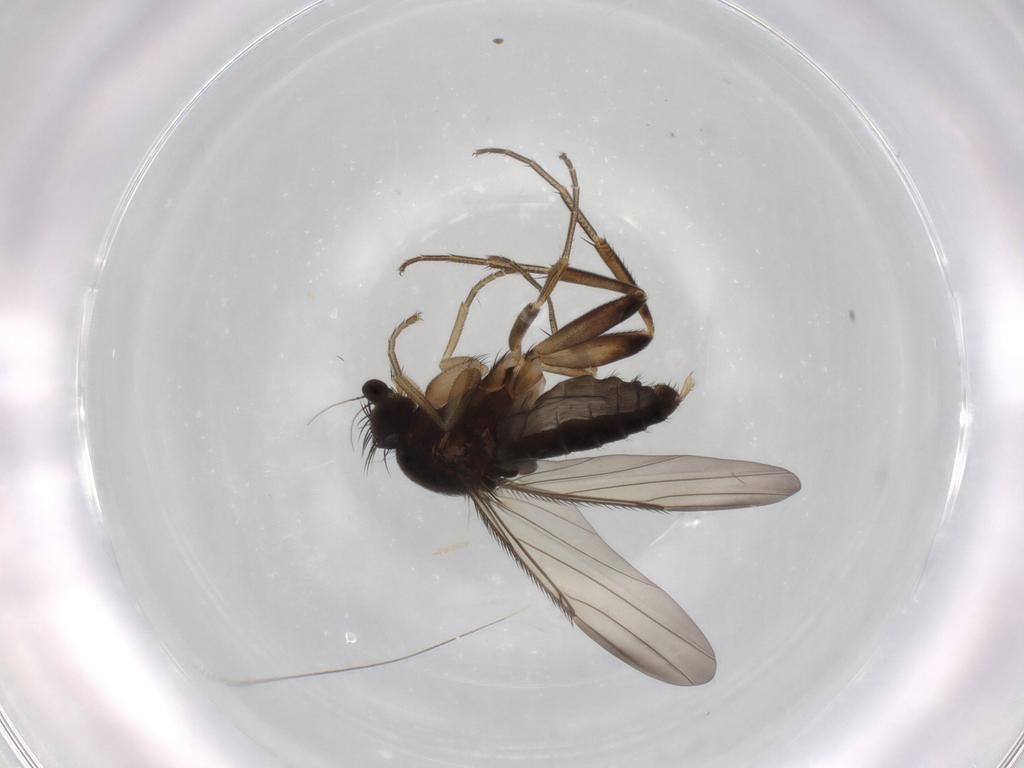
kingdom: Animalia
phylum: Arthropoda
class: Insecta
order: Diptera
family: Phoridae
